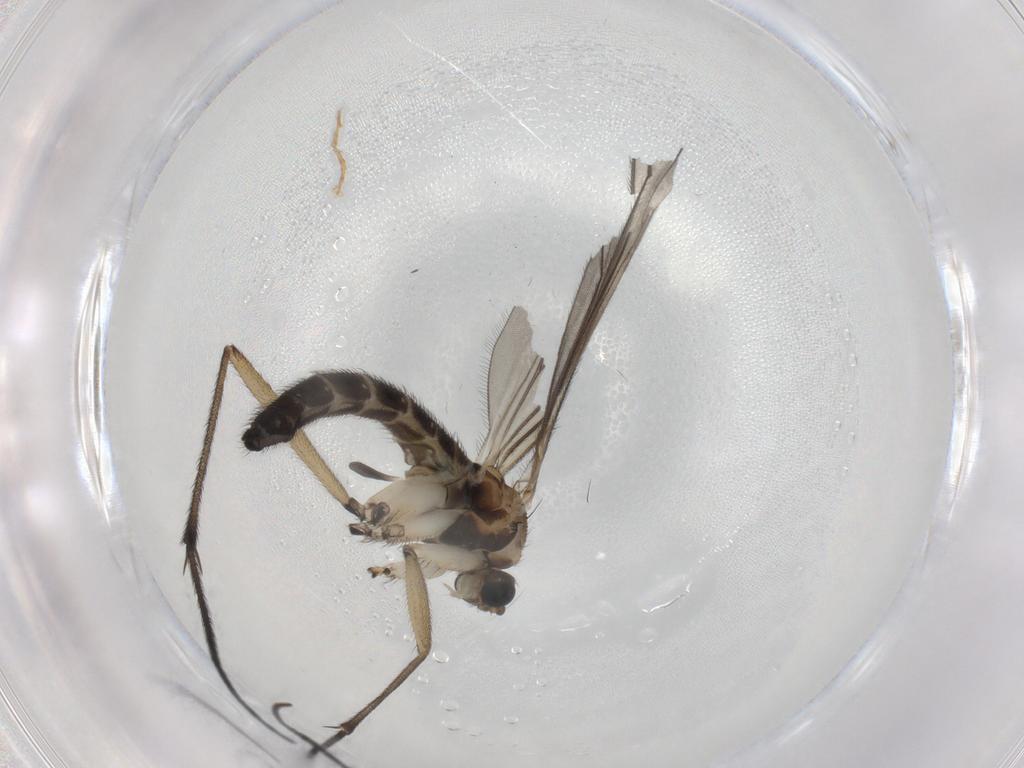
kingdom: Animalia
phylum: Arthropoda
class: Insecta
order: Diptera
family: Sciaridae
